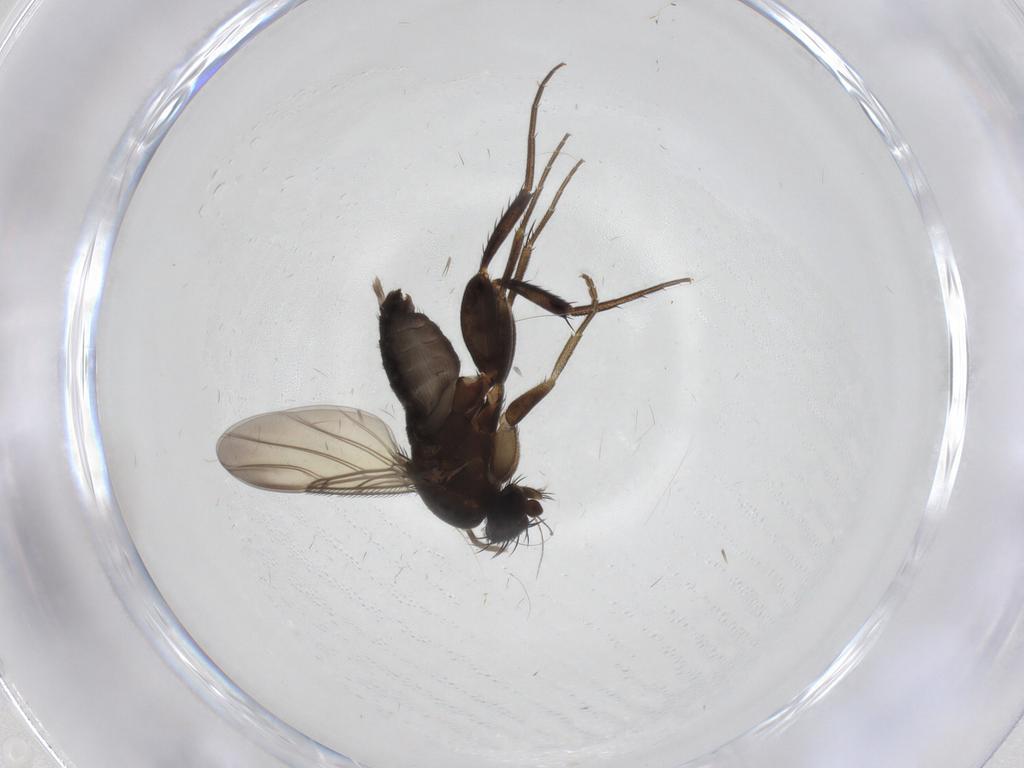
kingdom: Animalia
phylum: Arthropoda
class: Insecta
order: Diptera
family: Phoridae
